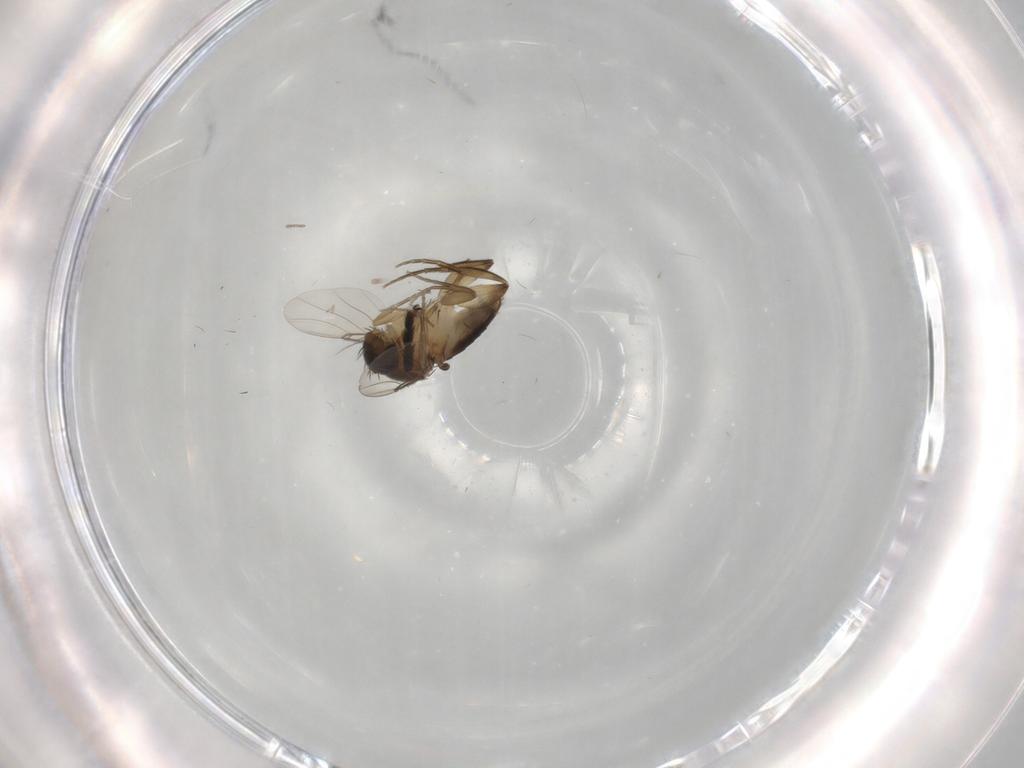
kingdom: Animalia
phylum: Arthropoda
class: Insecta
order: Diptera
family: Phoridae
